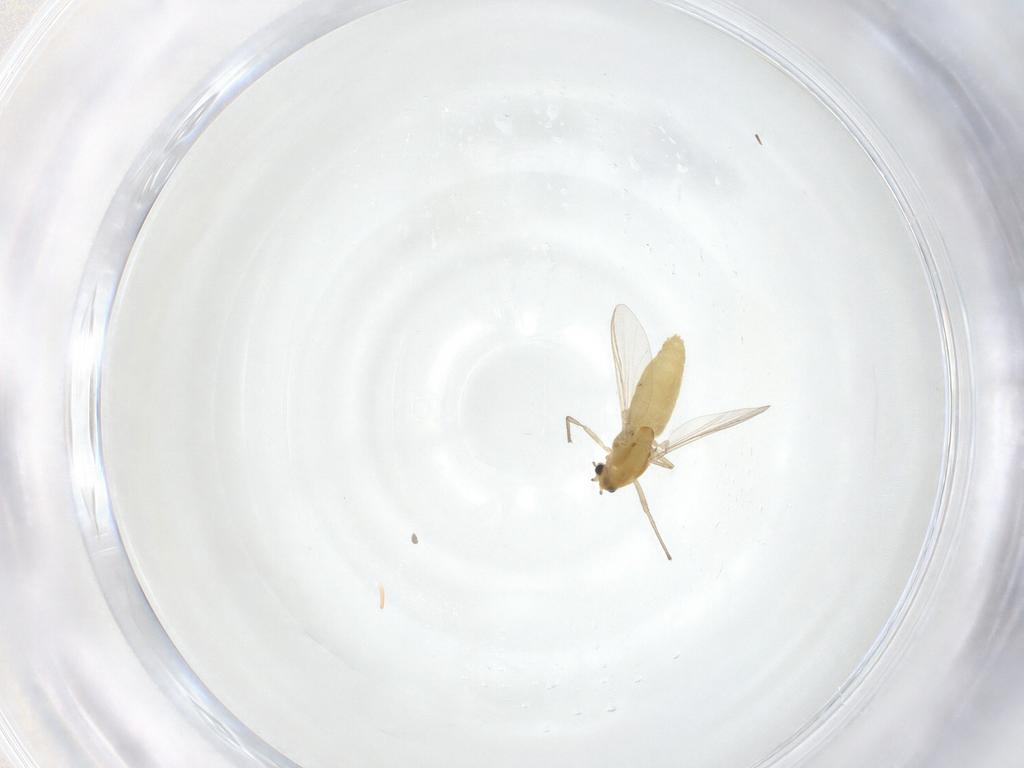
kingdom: Animalia
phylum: Arthropoda
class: Insecta
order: Diptera
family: Chironomidae
